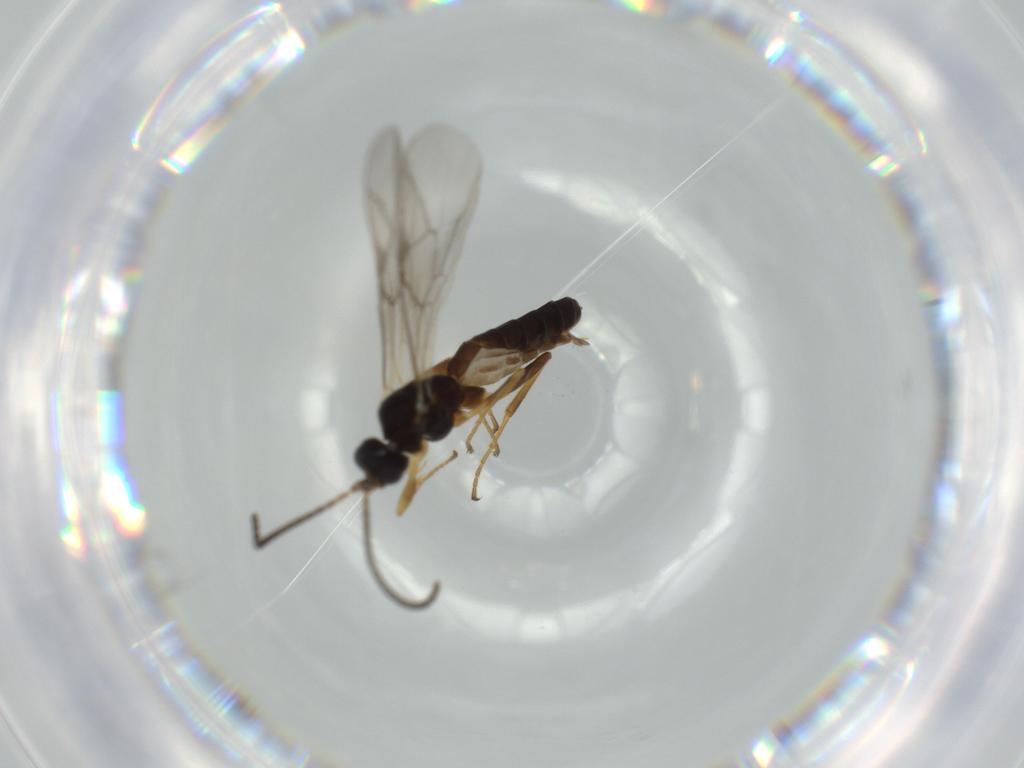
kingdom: Animalia
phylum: Arthropoda
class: Insecta
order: Hymenoptera
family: Ichneumonidae
